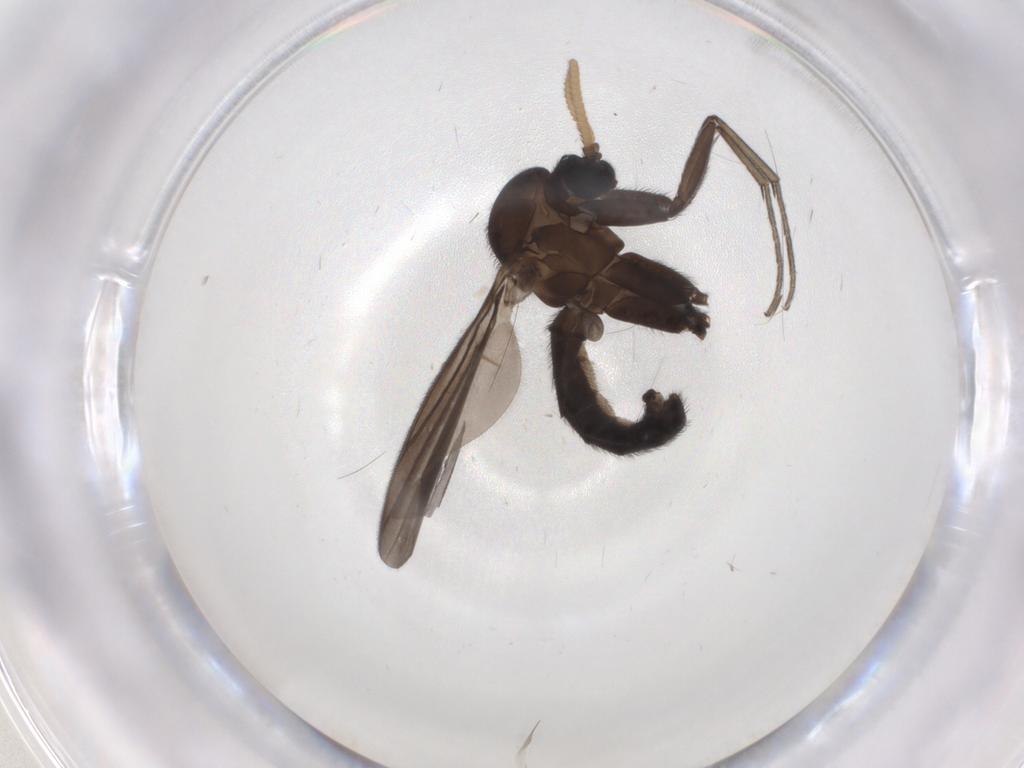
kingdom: Animalia
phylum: Arthropoda
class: Insecta
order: Diptera
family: Mycetophilidae
